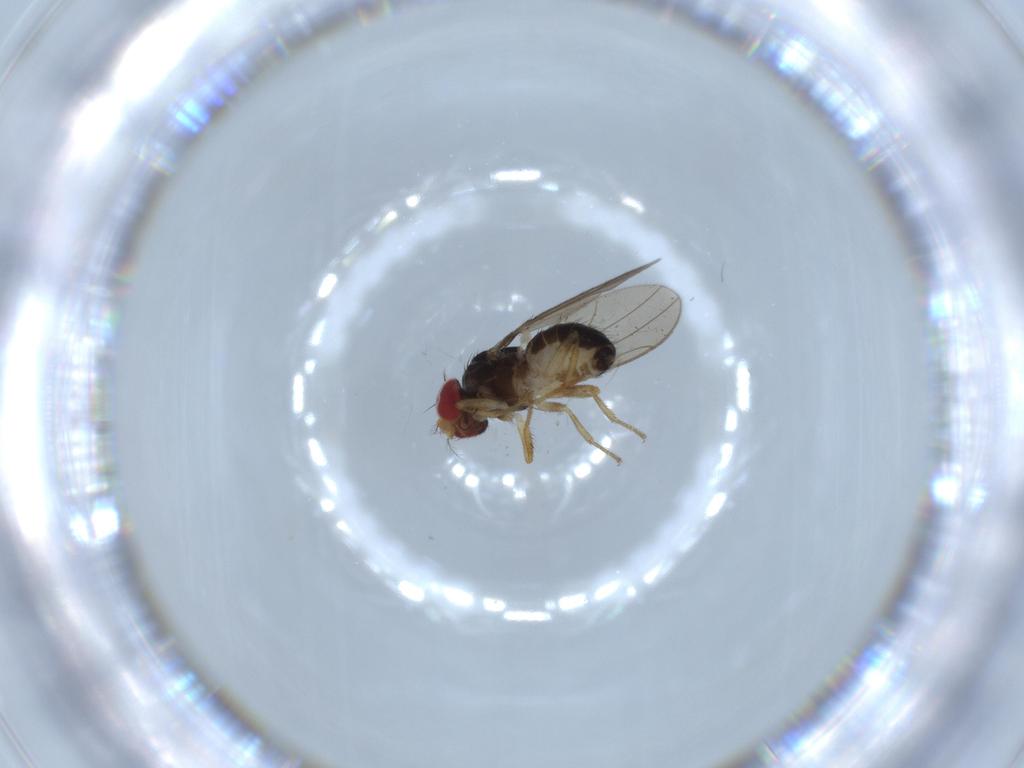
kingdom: Animalia
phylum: Arthropoda
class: Insecta
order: Diptera
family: Drosophilidae
